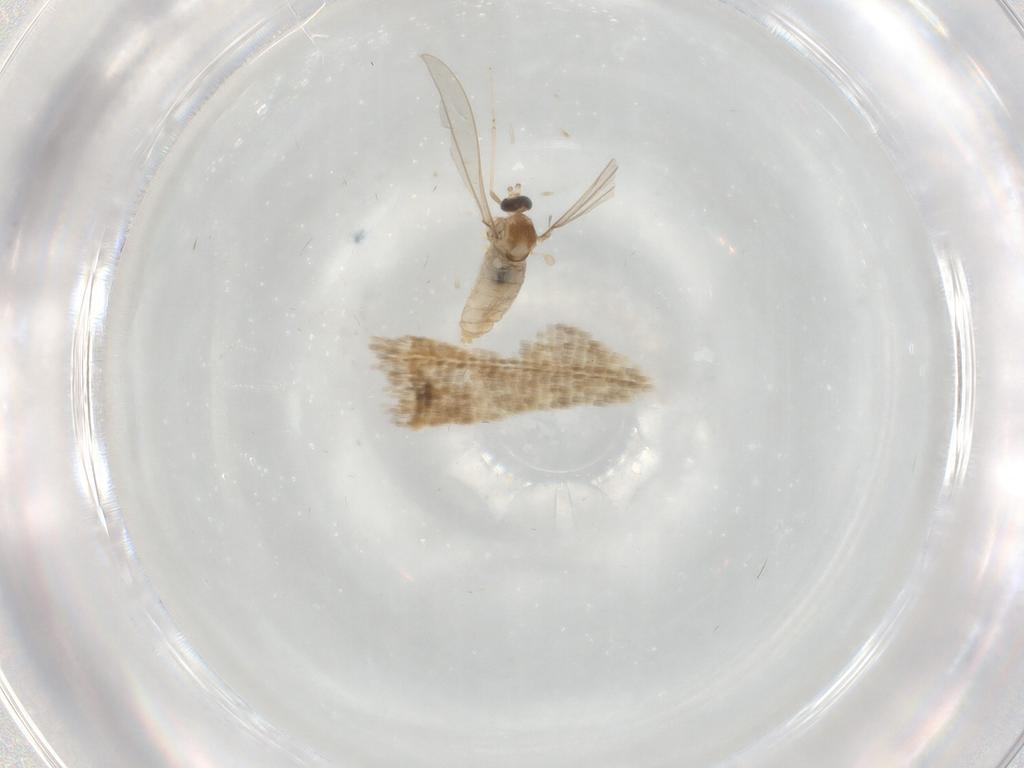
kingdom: Animalia
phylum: Arthropoda
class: Insecta
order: Diptera
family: Cecidomyiidae
